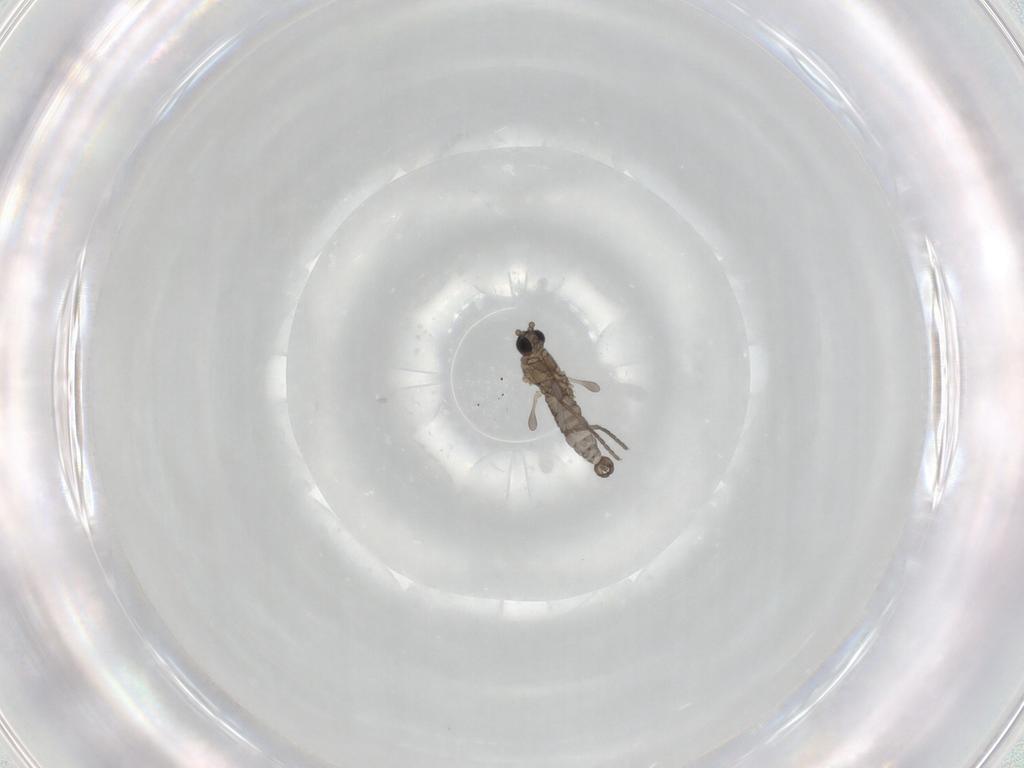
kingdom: Animalia
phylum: Arthropoda
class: Insecta
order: Diptera
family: Sciaridae
